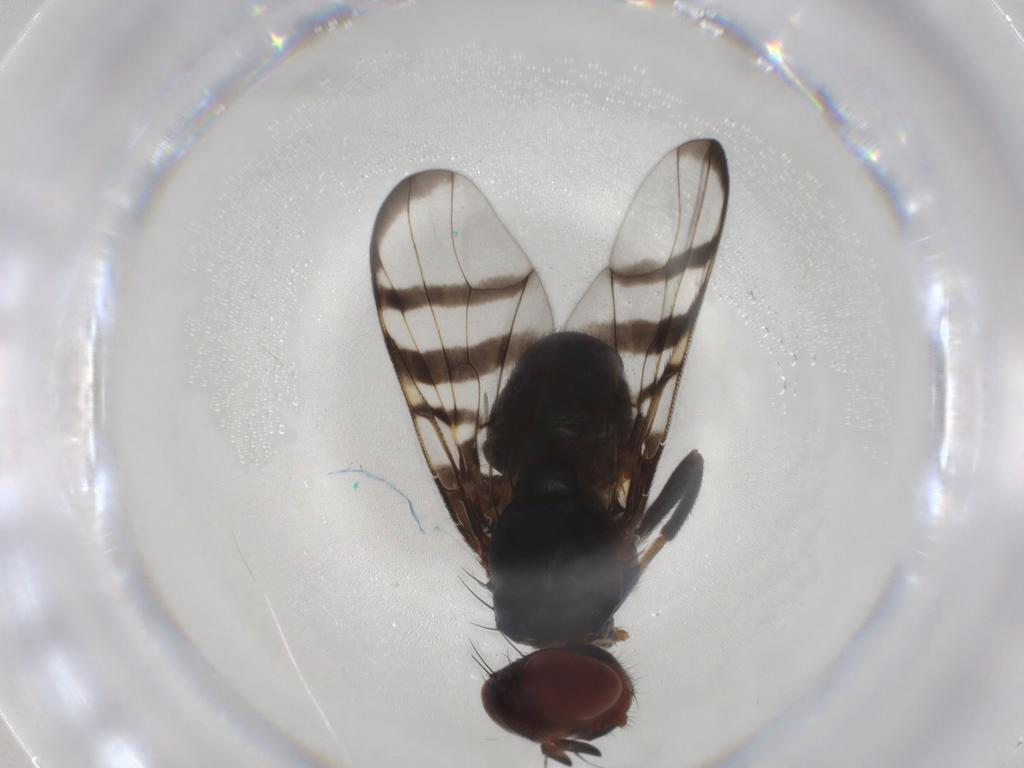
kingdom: Animalia
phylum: Arthropoda
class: Insecta
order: Diptera
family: Platystomatidae
